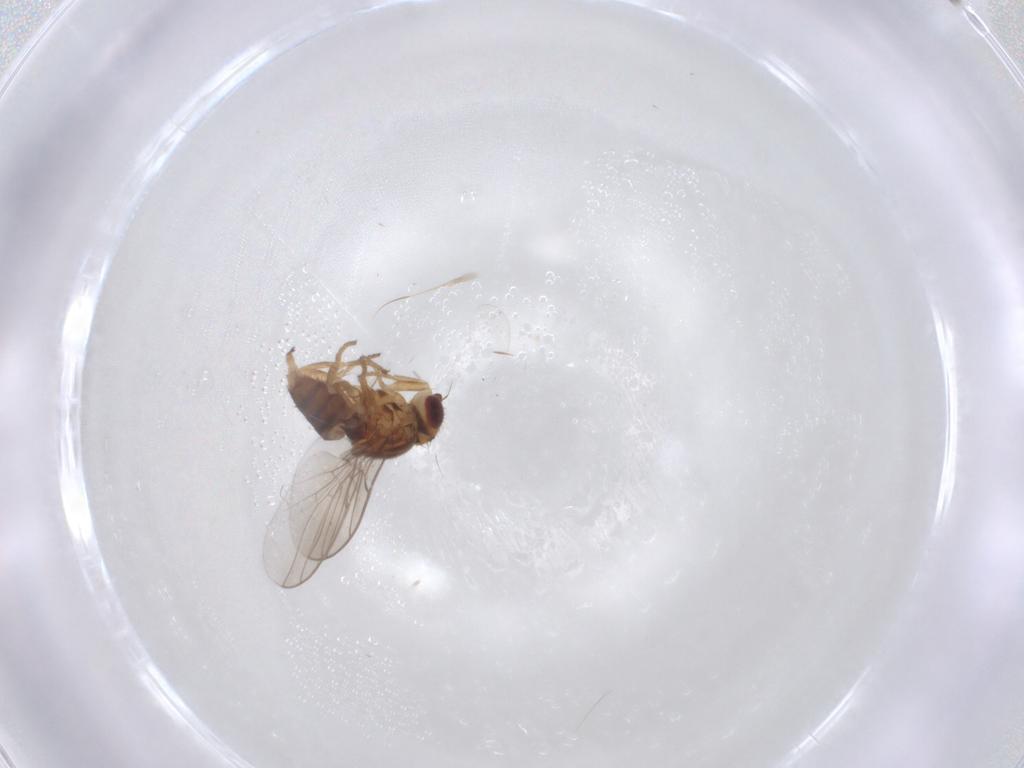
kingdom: Animalia
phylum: Arthropoda
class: Insecta
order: Diptera
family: Chloropidae
